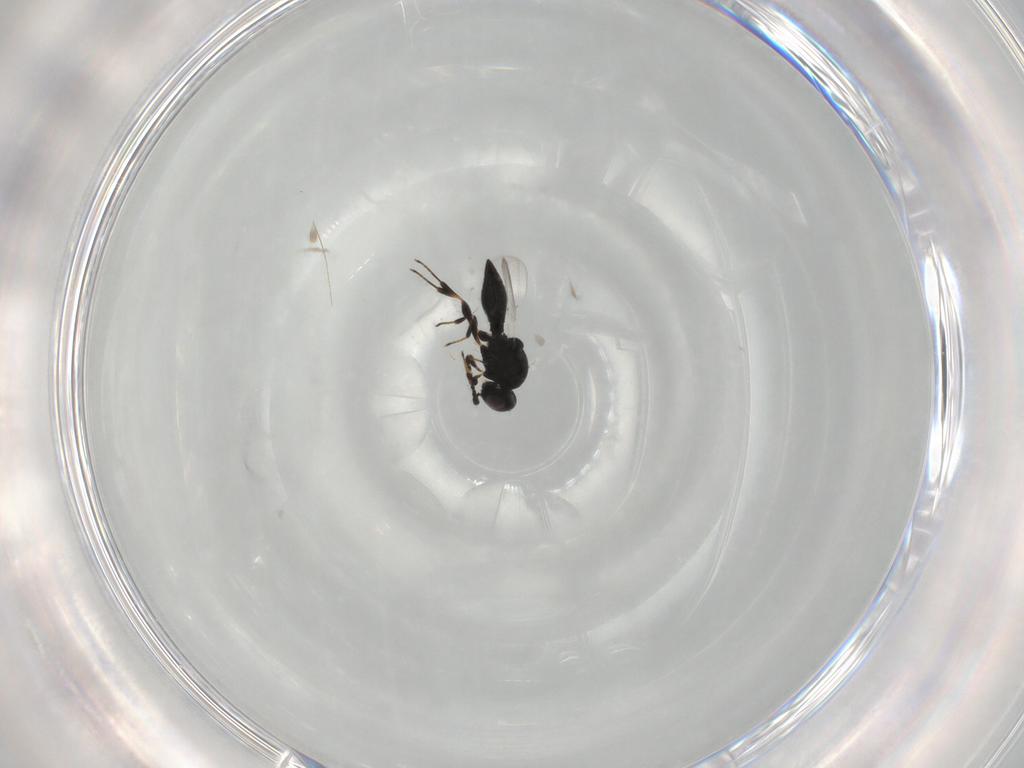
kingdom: Animalia
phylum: Arthropoda
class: Insecta
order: Hymenoptera
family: Platygastridae
